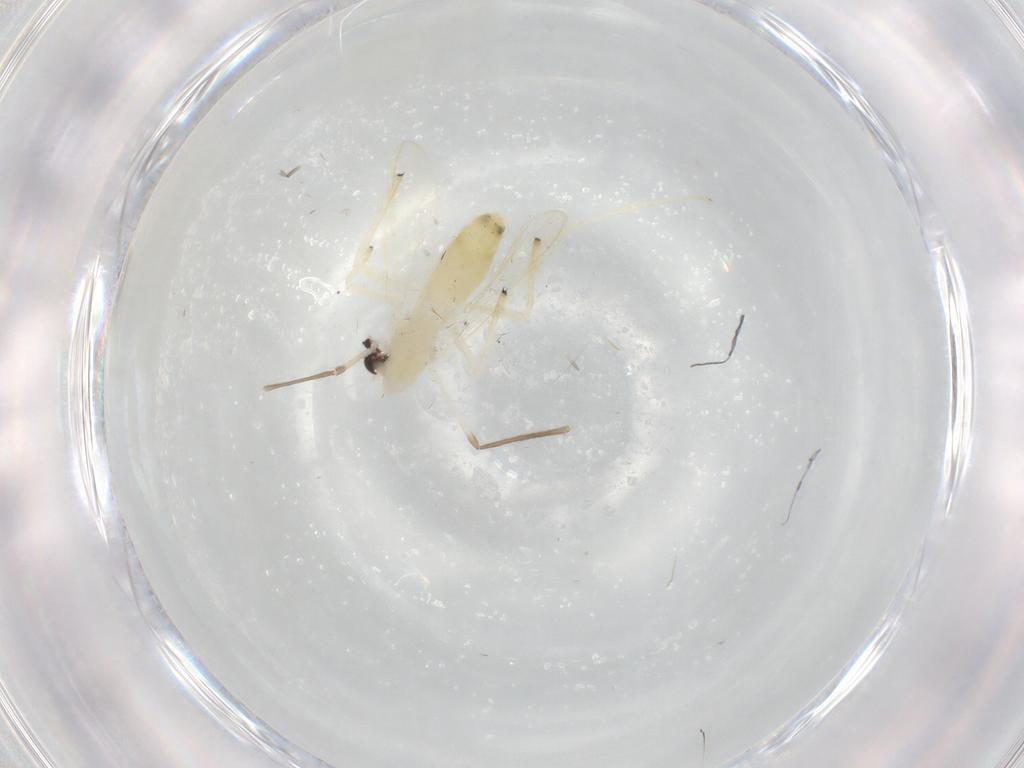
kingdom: Animalia
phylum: Arthropoda
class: Insecta
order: Diptera
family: Chironomidae
